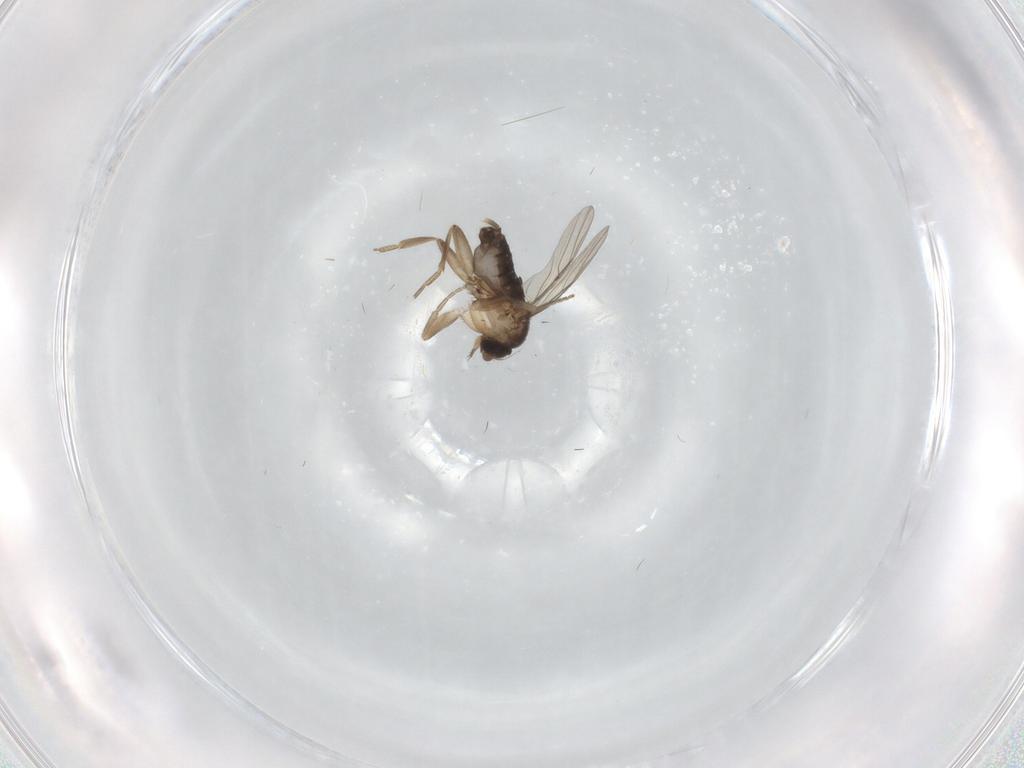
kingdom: Animalia
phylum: Arthropoda
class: Insecta
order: Diptera
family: Phoridae
